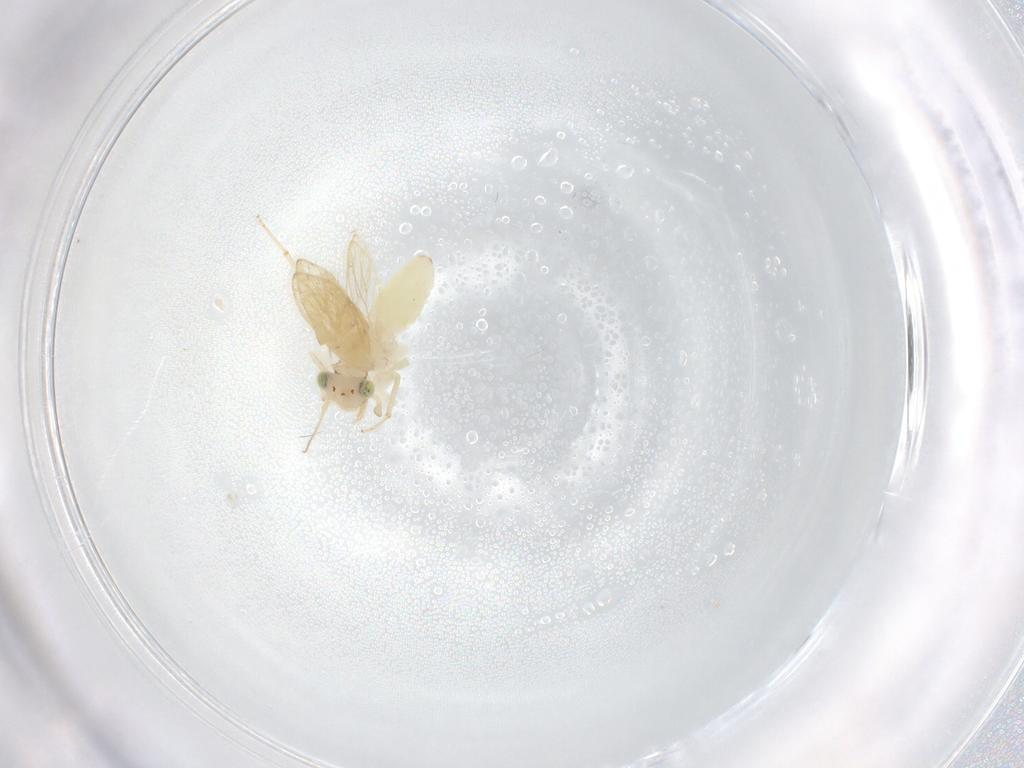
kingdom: Animalia
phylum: Arthropoda
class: Insecta
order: Psocodea
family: Lepidopsocidae
